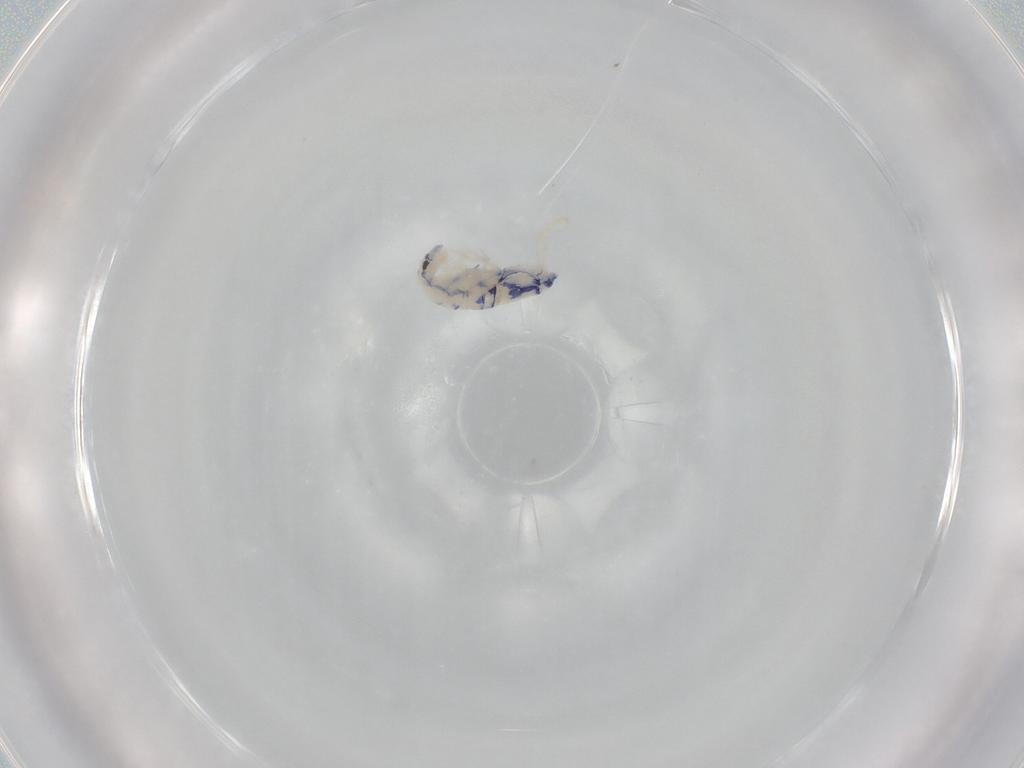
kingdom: Animalia
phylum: Arthropoda
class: Collembola
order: Entomobryomorpha
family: Entomobryidae
